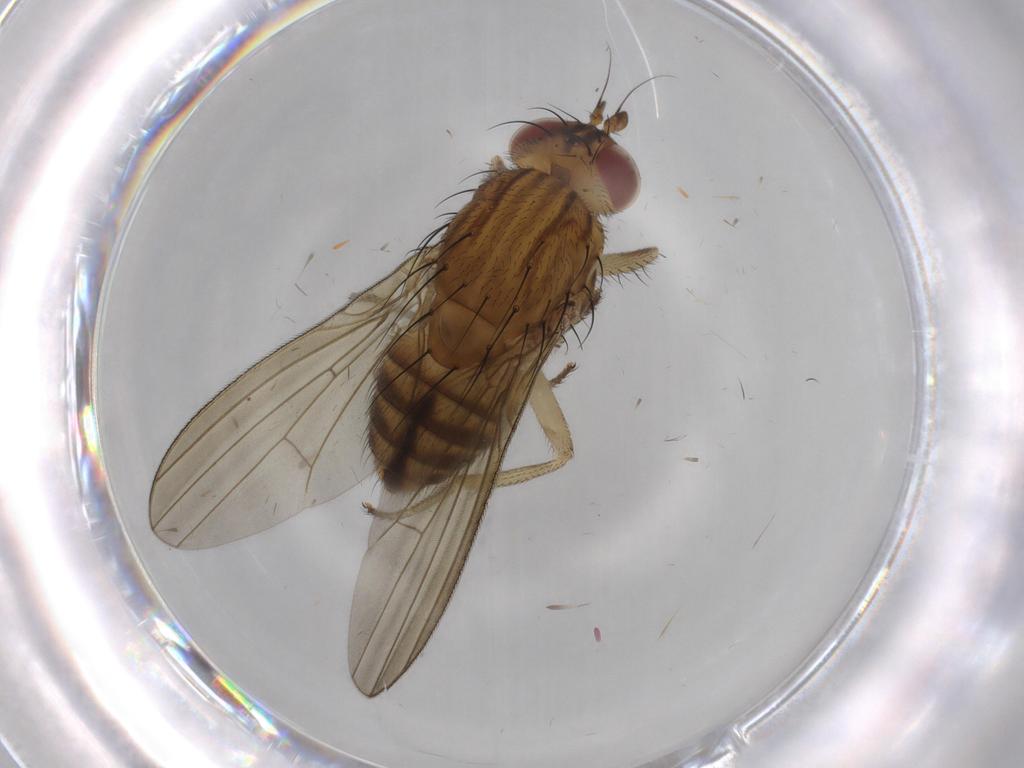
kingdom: Animalia
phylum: Arthropoda
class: Insecta
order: Diptera
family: Limoniidae
